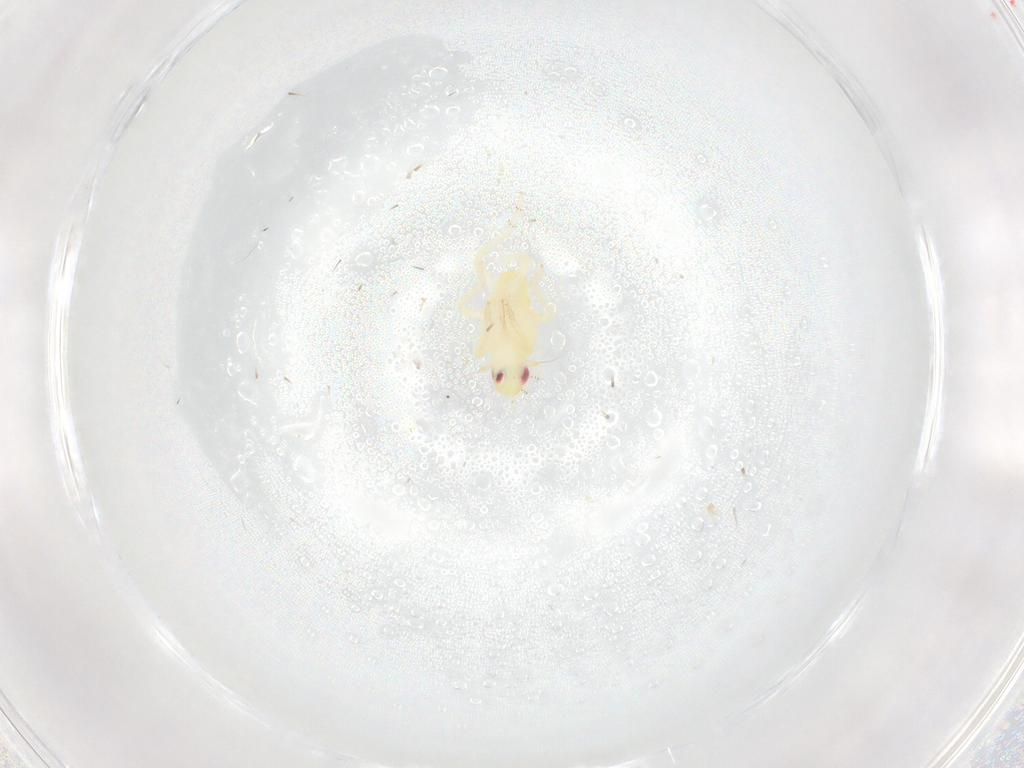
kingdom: Animalia
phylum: Arthropoda
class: Insecta
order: Hemiptera
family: Tropiduchidae
